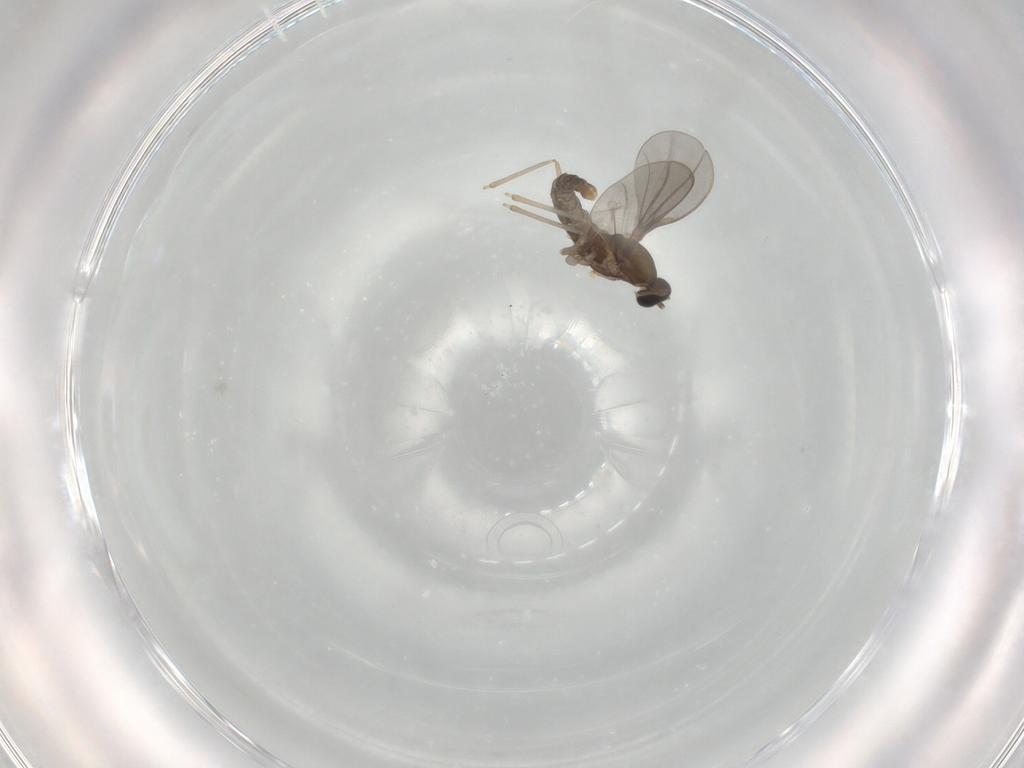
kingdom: Animalia
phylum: Arthropoda
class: Insecta
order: Diptera
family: Cecidomyiidae
